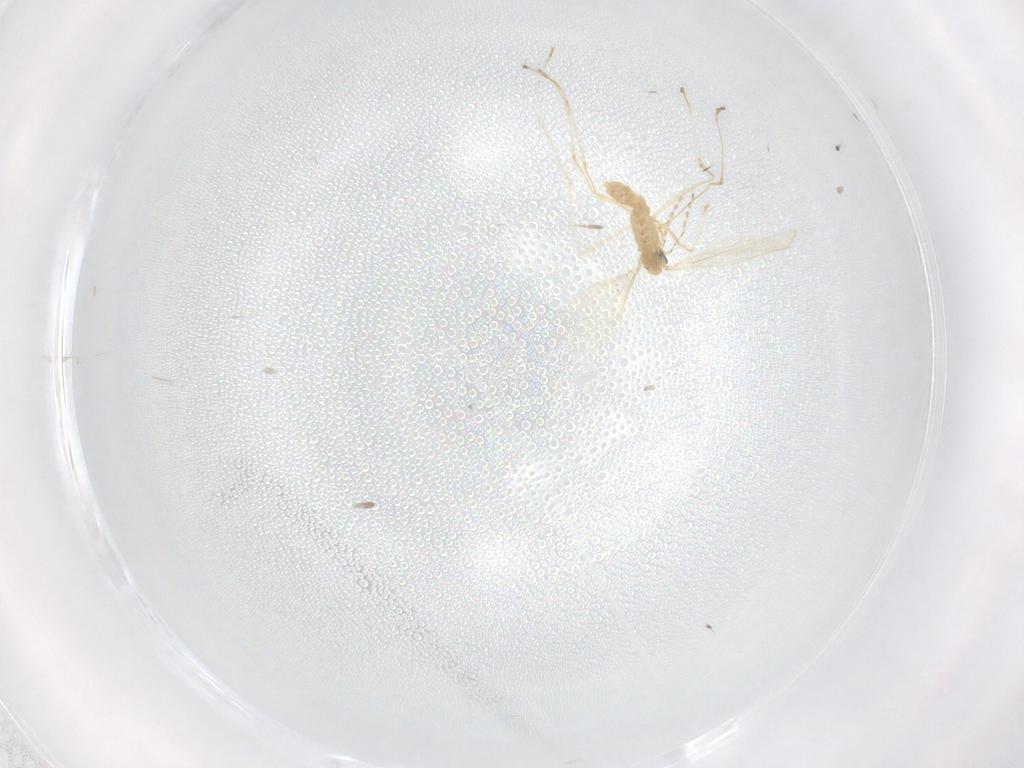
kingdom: Animalia
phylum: Arthropoda
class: Insecta
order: Diptera
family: Cecidomyiidae
